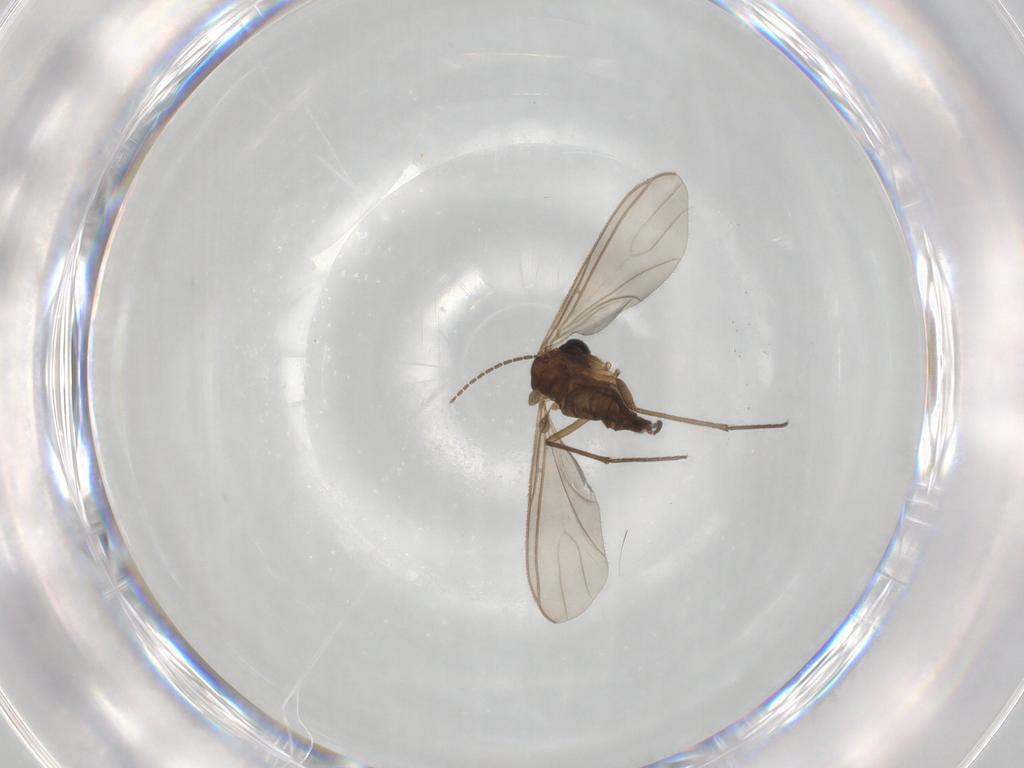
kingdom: Animalia
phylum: Arthropoda
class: Insecta
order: Diptera
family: Sciaridae
